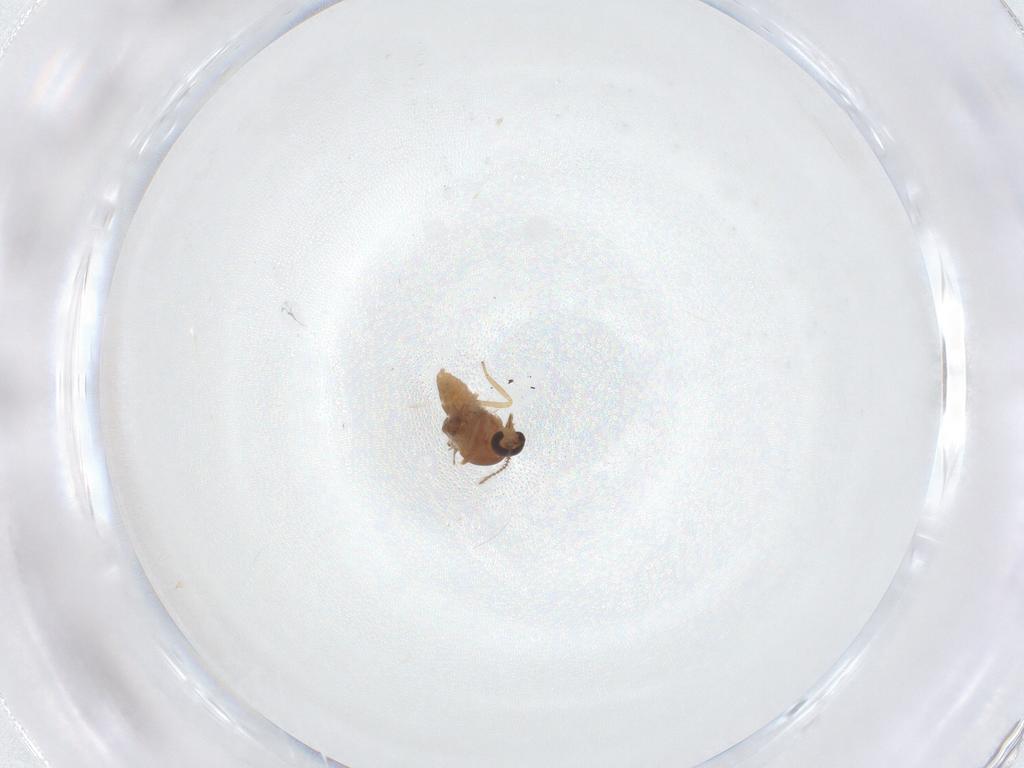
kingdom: Animalia
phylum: Arthropoda
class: Insecta
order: Diptera
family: Ceratopogonidae
